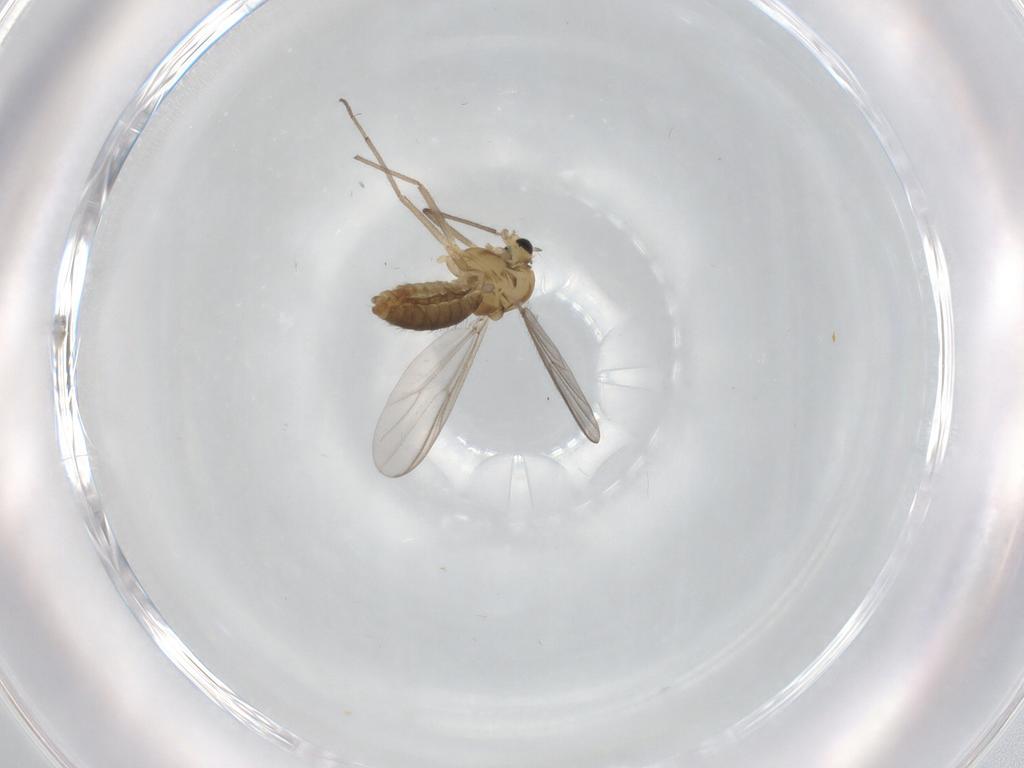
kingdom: Animalia
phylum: Arthropoda
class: Insecta
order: Diptera
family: Chironomidae
